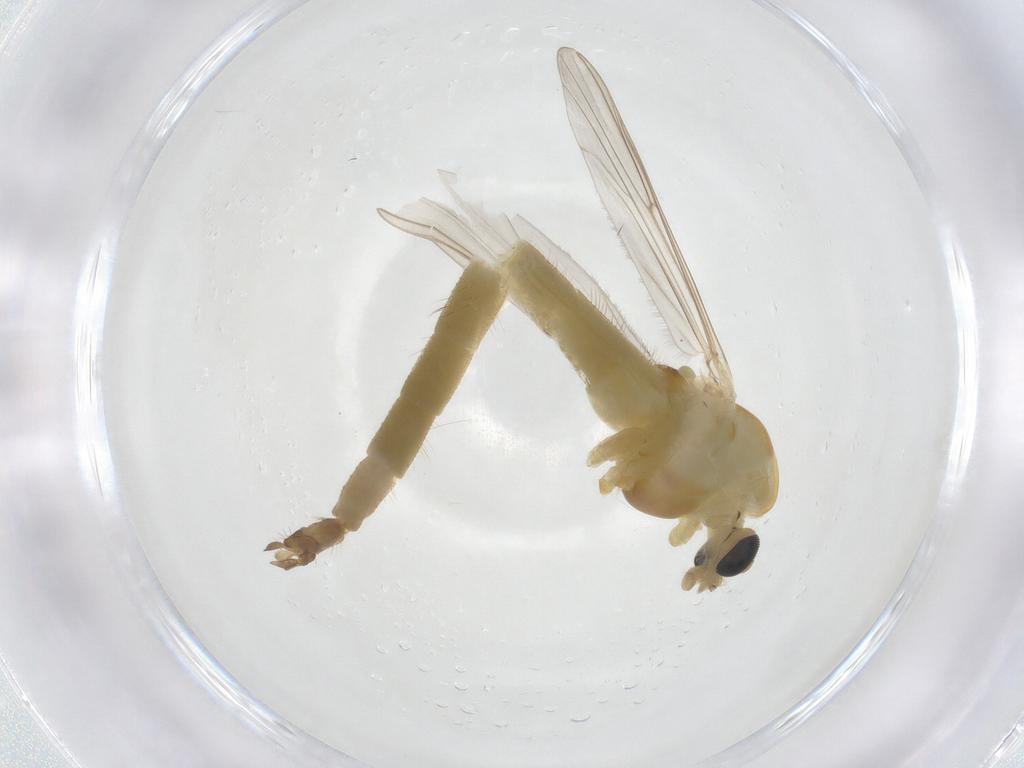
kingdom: Animalia
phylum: Arthropoda
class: Insecta
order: Diptera
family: Chironomidae
